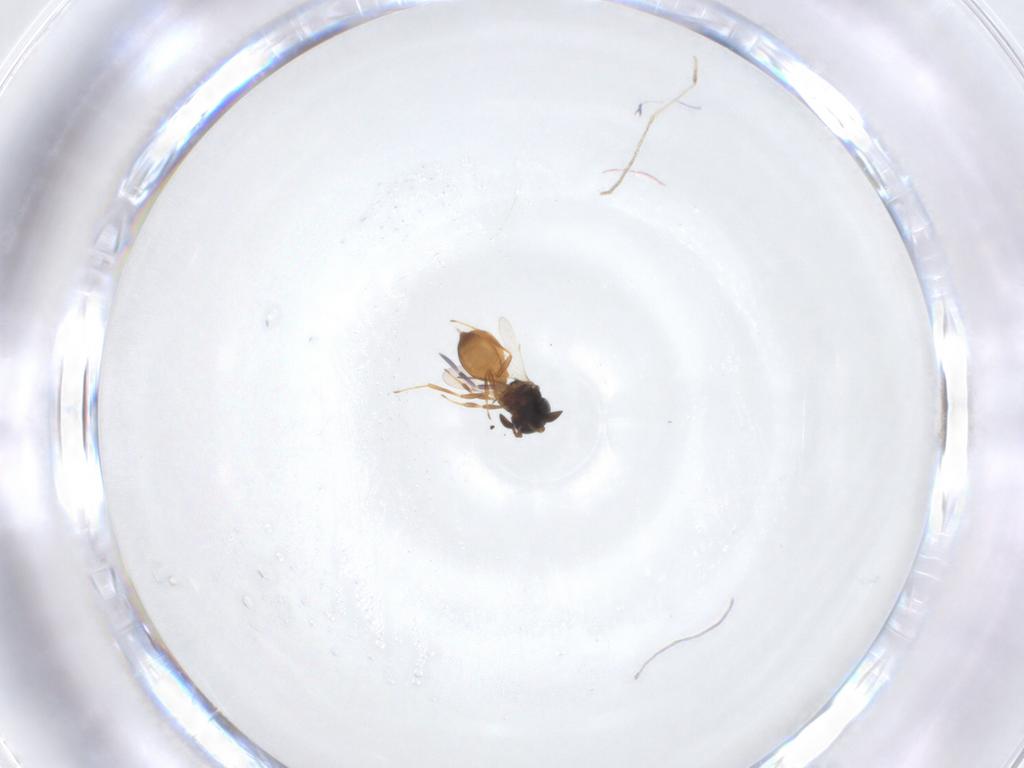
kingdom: Animalia
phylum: Arthropoda
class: Insecta
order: Hymenoptera
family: Scelionidae
